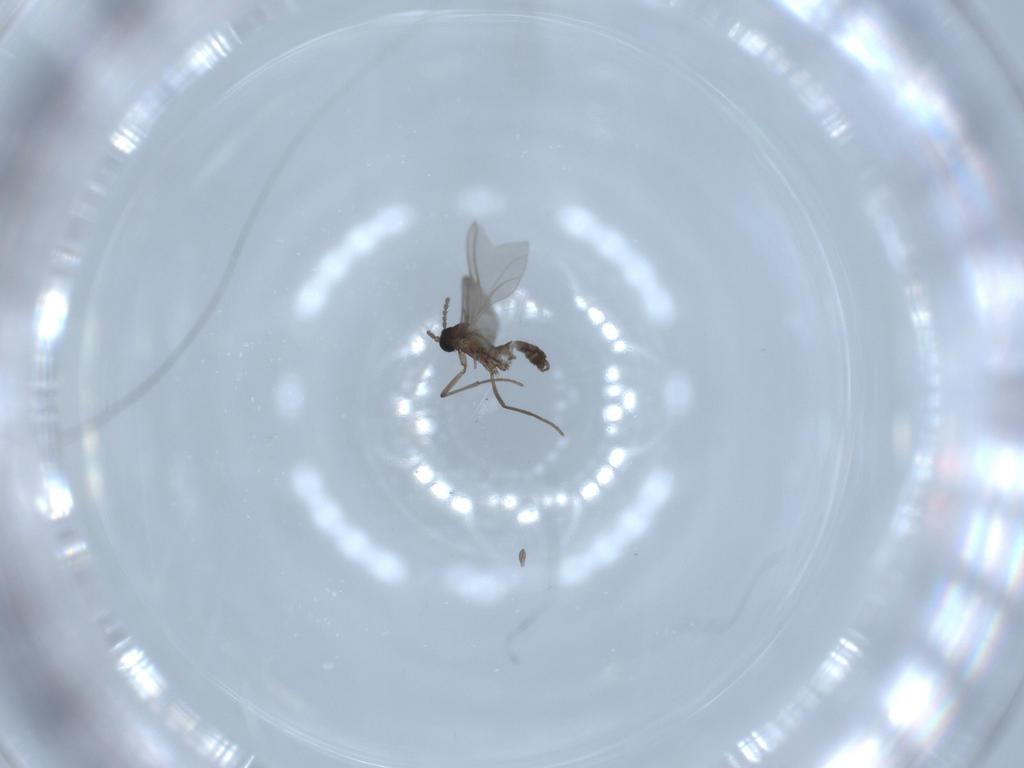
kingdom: Animalia
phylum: Arthropoda
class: Insecta
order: Diptera
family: Sciaridae
